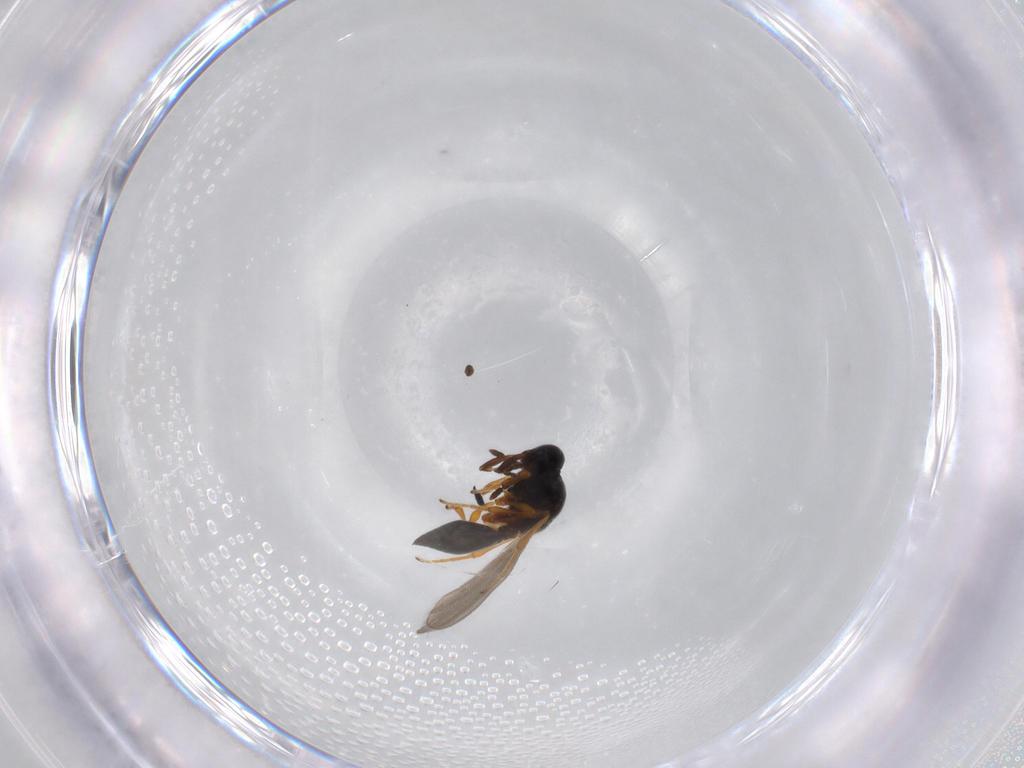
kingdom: Animalia
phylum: Arthropoda
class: Insecta
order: Hymenoptera
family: Platygastridae
